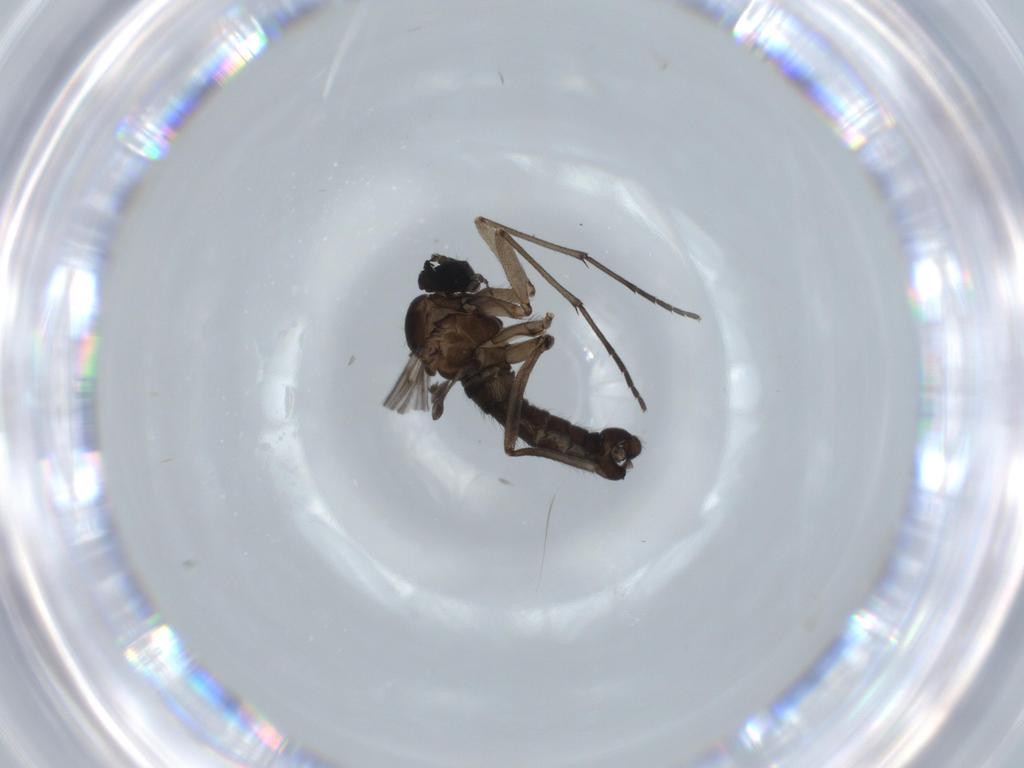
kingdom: Animalia
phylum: Arthropoda
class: Insecta
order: Diptera
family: Sciaridae
